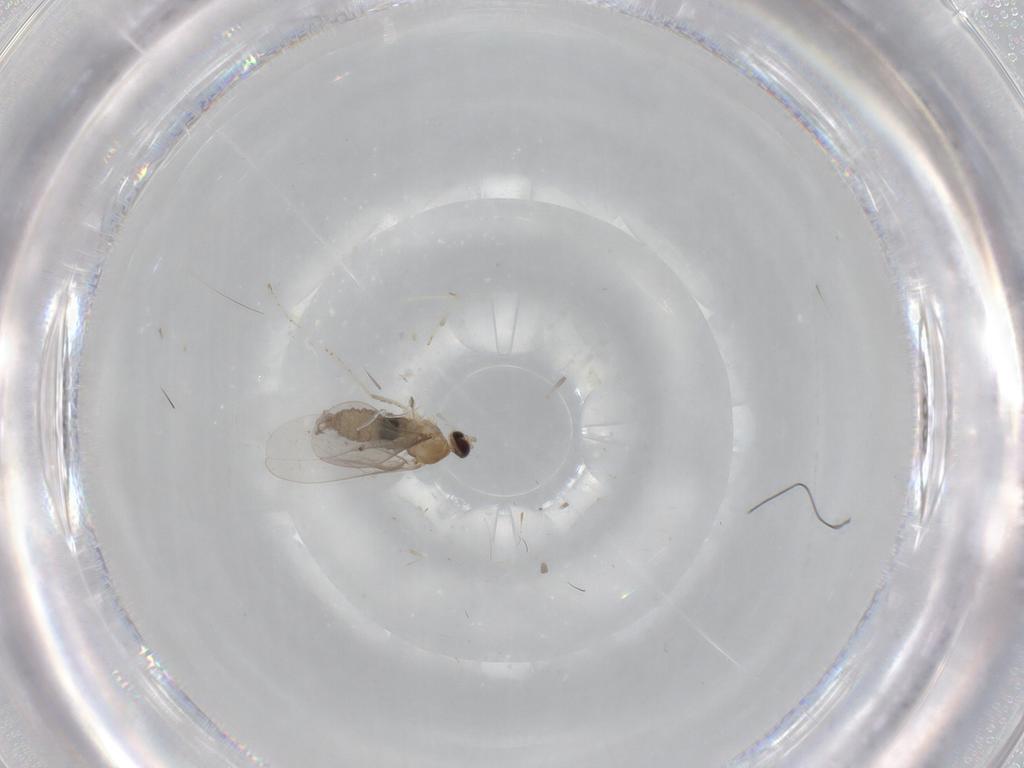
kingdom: Animalia
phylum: Arthropoda
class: Insecta
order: Diptera
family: Cecidomyiidae
